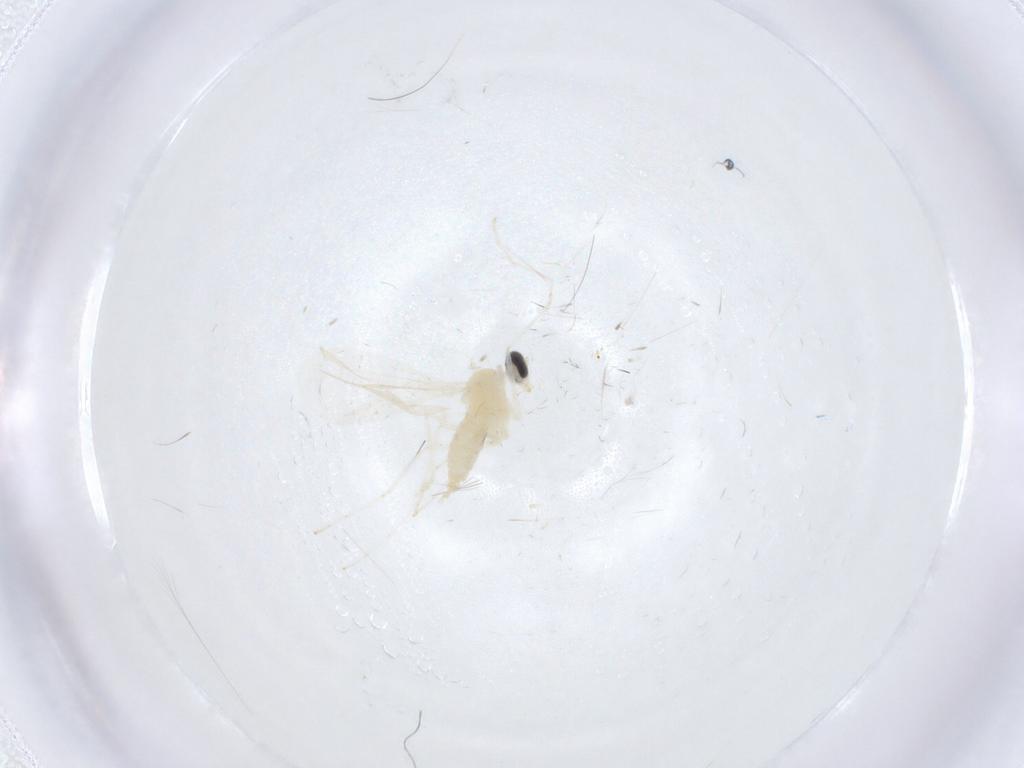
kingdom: Animalia
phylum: Arthropoda
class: Insecta
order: Diptera
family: Cecidomyiidae
